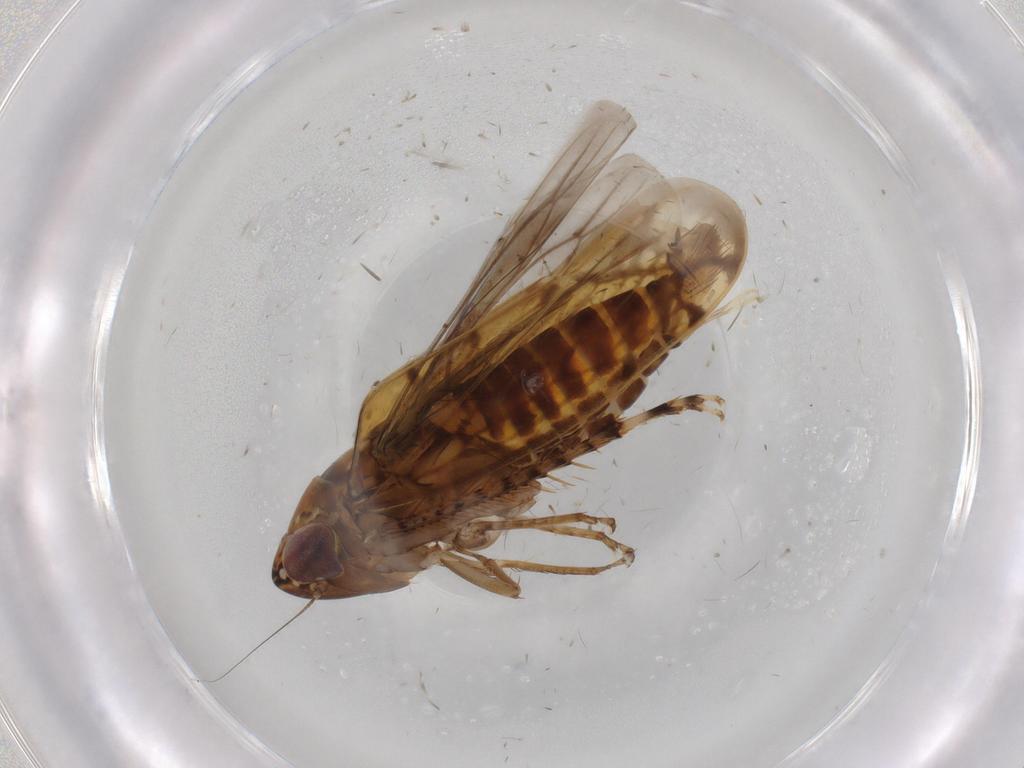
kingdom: Animalia
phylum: Arthropoda
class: Insecta
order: Hemiptera
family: Cicadellidae
